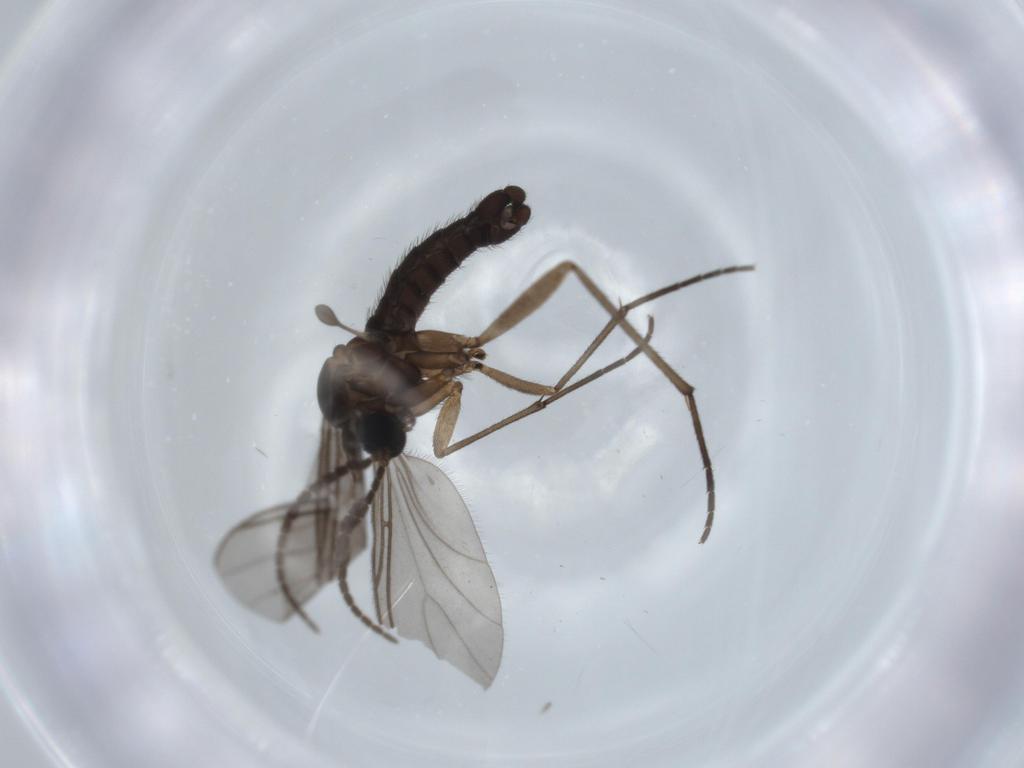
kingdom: Animalia
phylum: Arthropoda
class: Insecta
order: Diptera
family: Sciaridae
